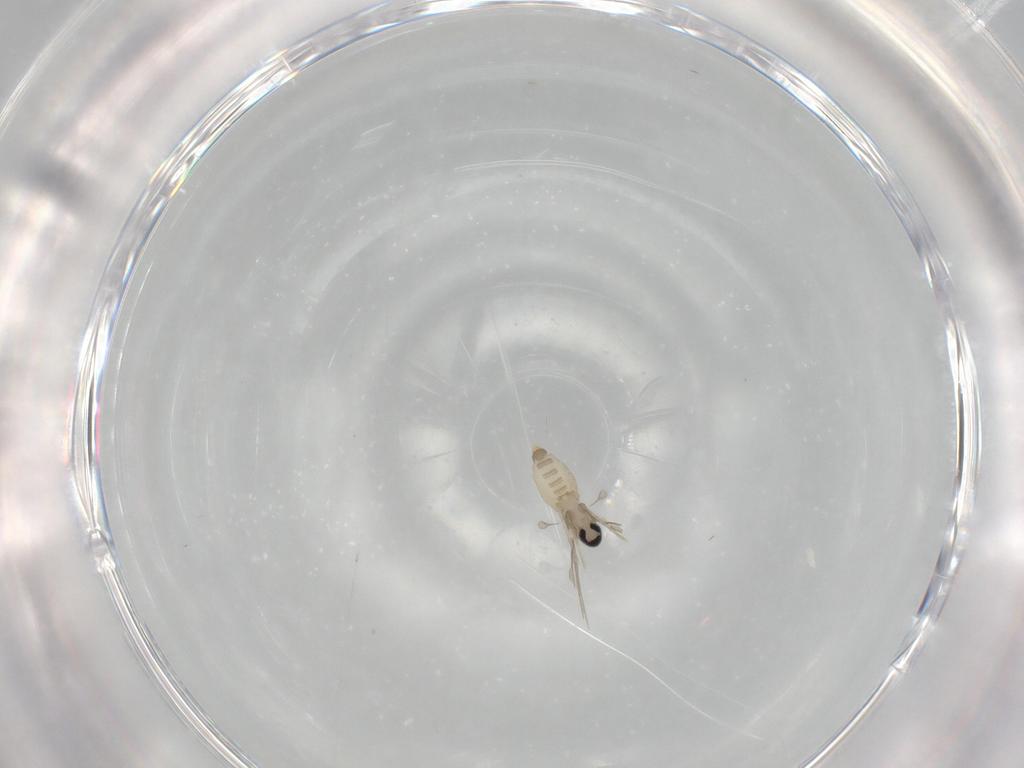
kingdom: Animalia
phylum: Arthropoda
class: Insecta
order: Diptera
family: Cecidomyiidae
